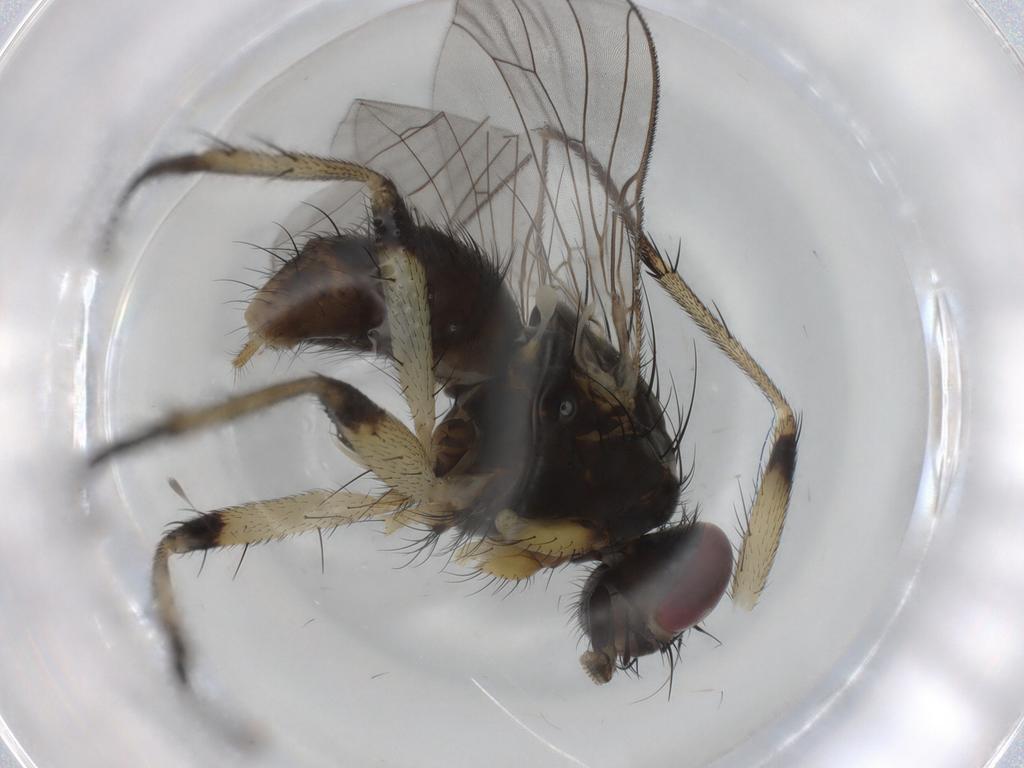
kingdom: Animalia
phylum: Arthropoda
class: Insecta
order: Diptera
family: Muscidae
